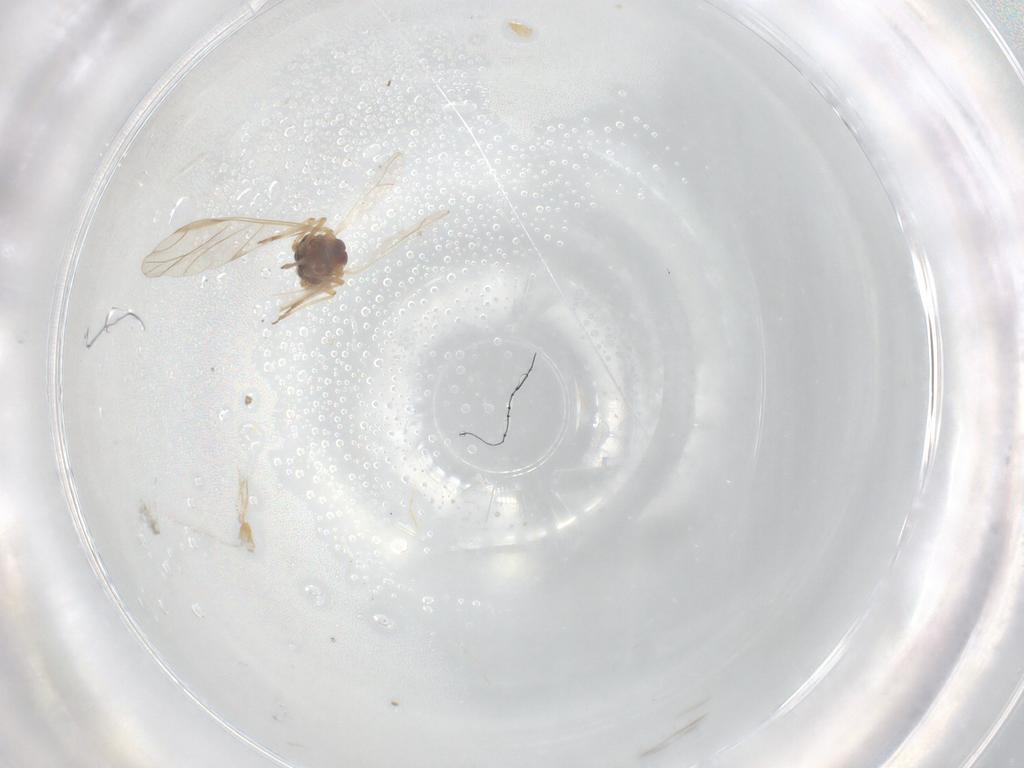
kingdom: Animalia
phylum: Arthropoda
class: Insecta
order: Hemiptera
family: Aphididae
